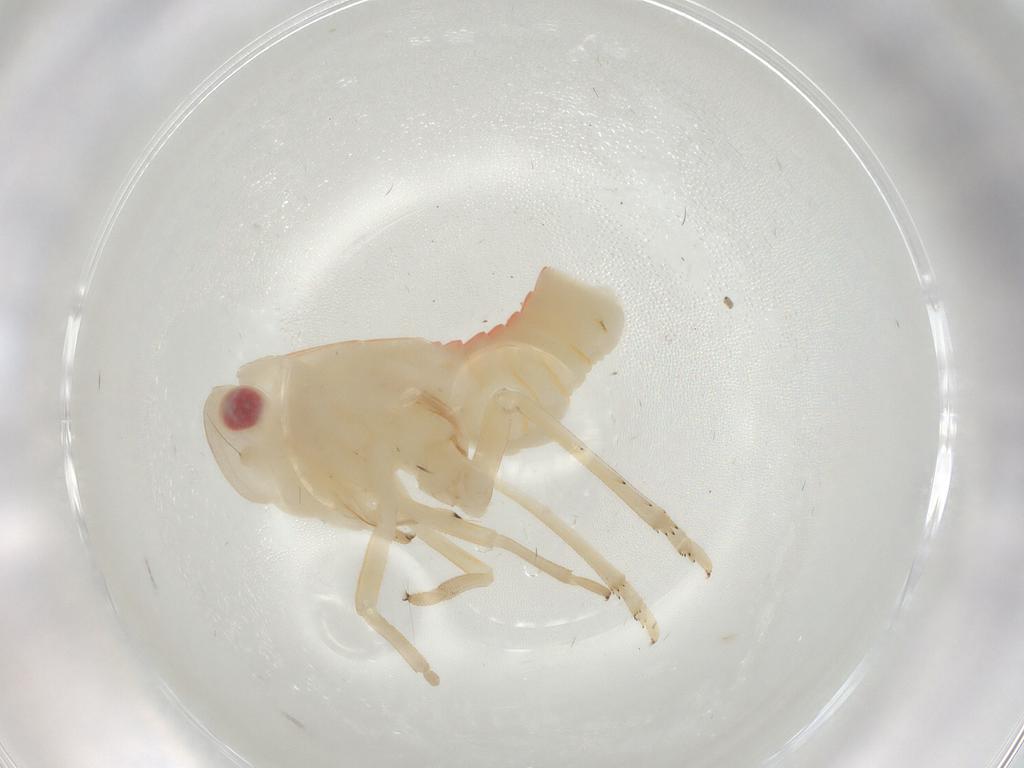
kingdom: Animalia
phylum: Arthropoda
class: Insecta
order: Hemiptera
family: Tropiduchidae
